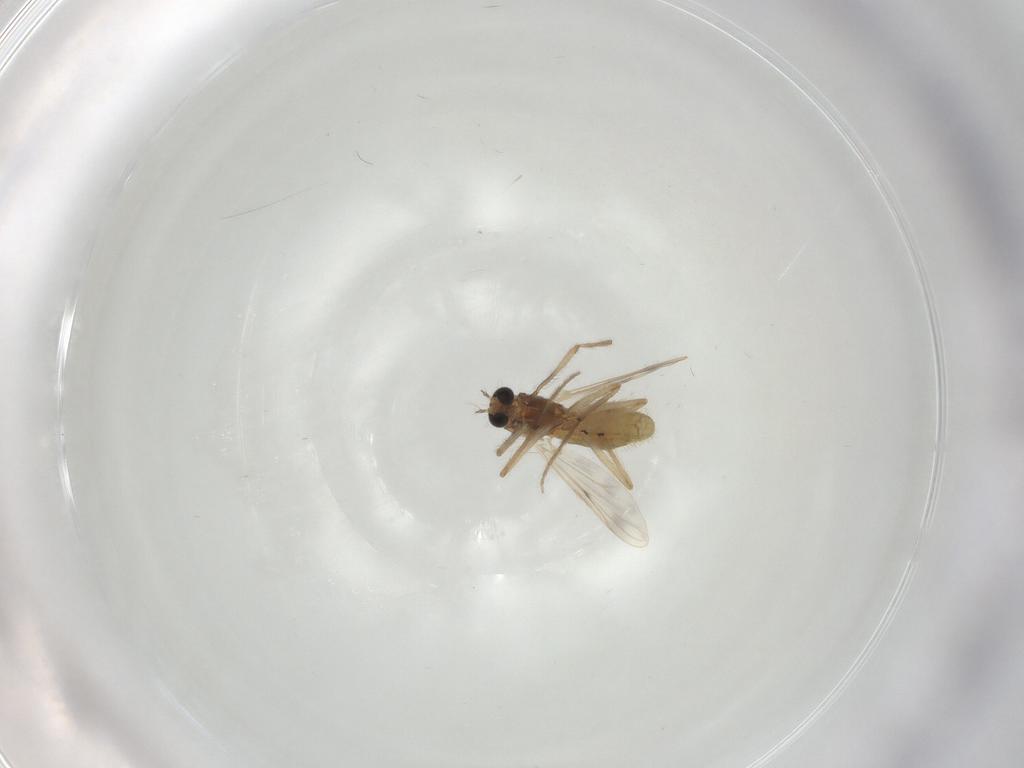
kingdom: Animalia
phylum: Arthropoda
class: Insecta
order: Diptera
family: Chironomidae
